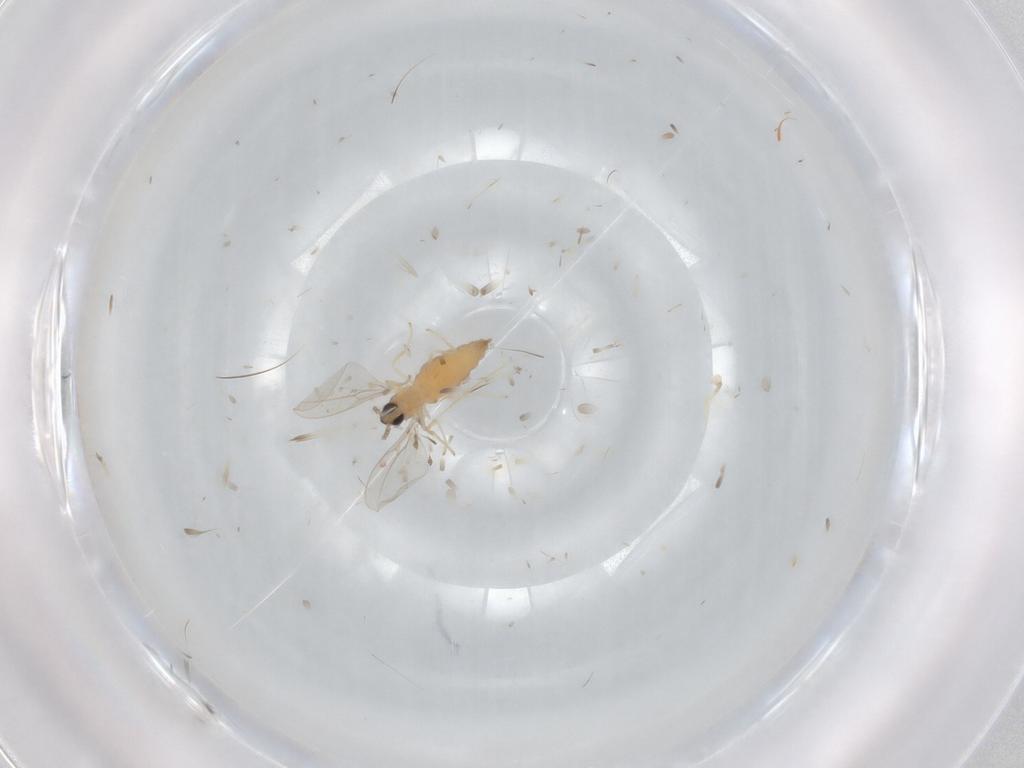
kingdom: Animalia
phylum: Arthropoda
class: Insecta
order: Diptera
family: Cecidomyiidae
